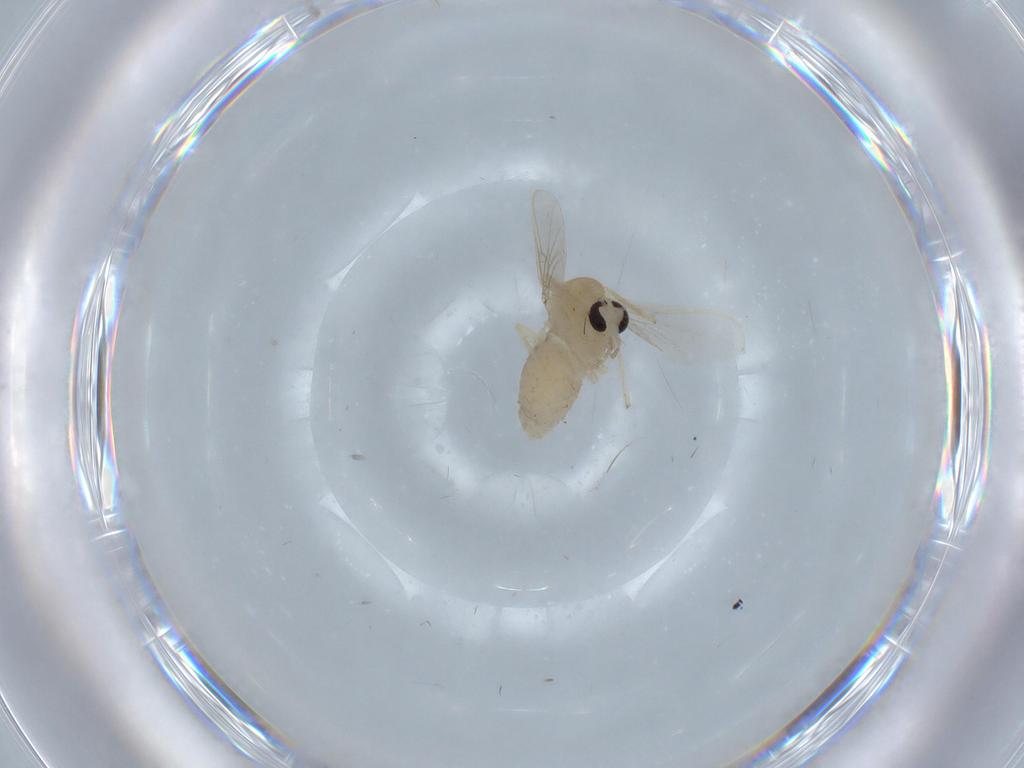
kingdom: Animalia
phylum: Arthropoda
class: Insecta
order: Diptera
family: Chironomidae
